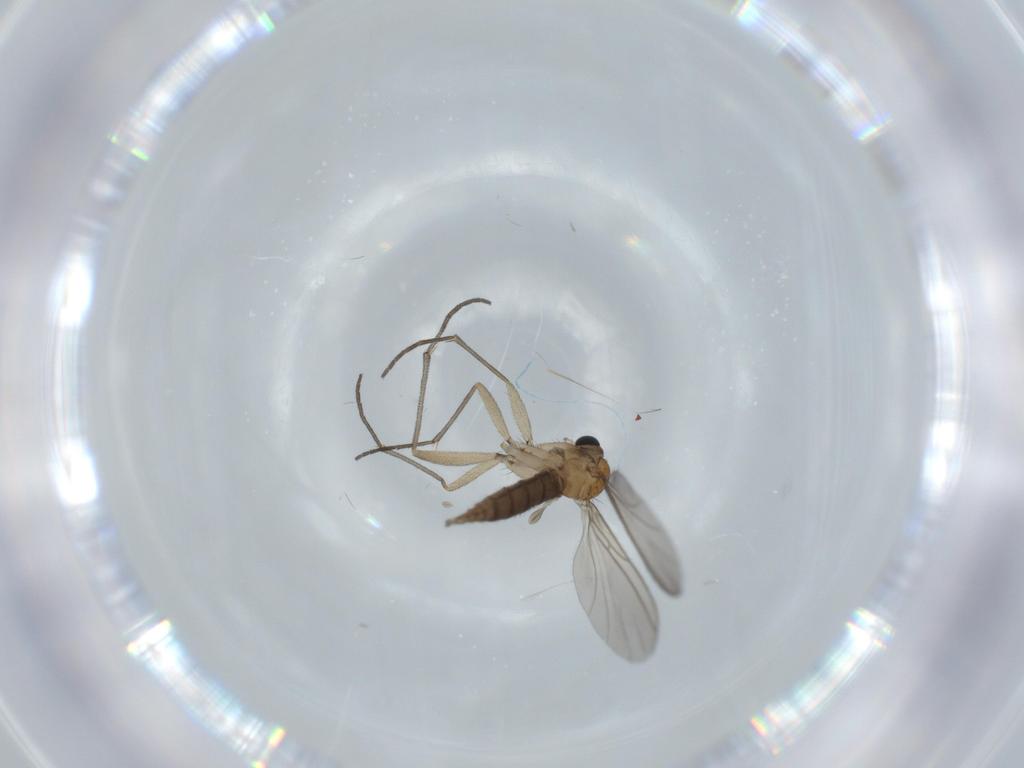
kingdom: Animalia
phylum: Arthropoda
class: Insecta
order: Diptera
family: Sciaridae
